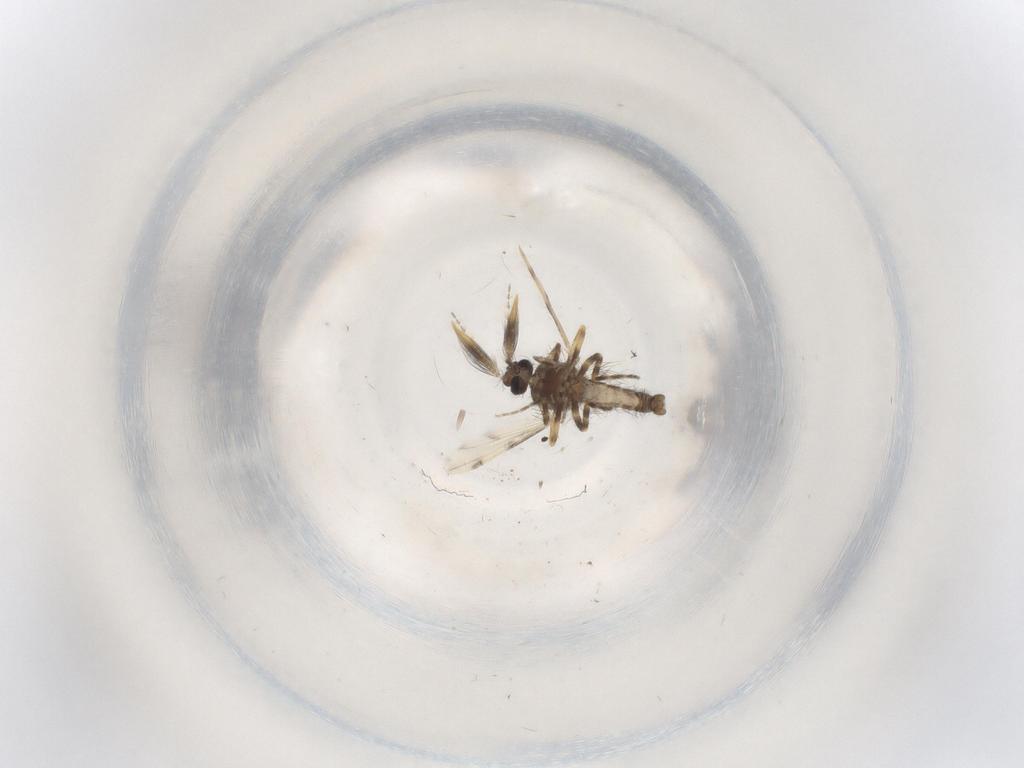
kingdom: Animalia
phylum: Arthropoda
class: Insecta
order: Diptera
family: Ceratopogonidae
